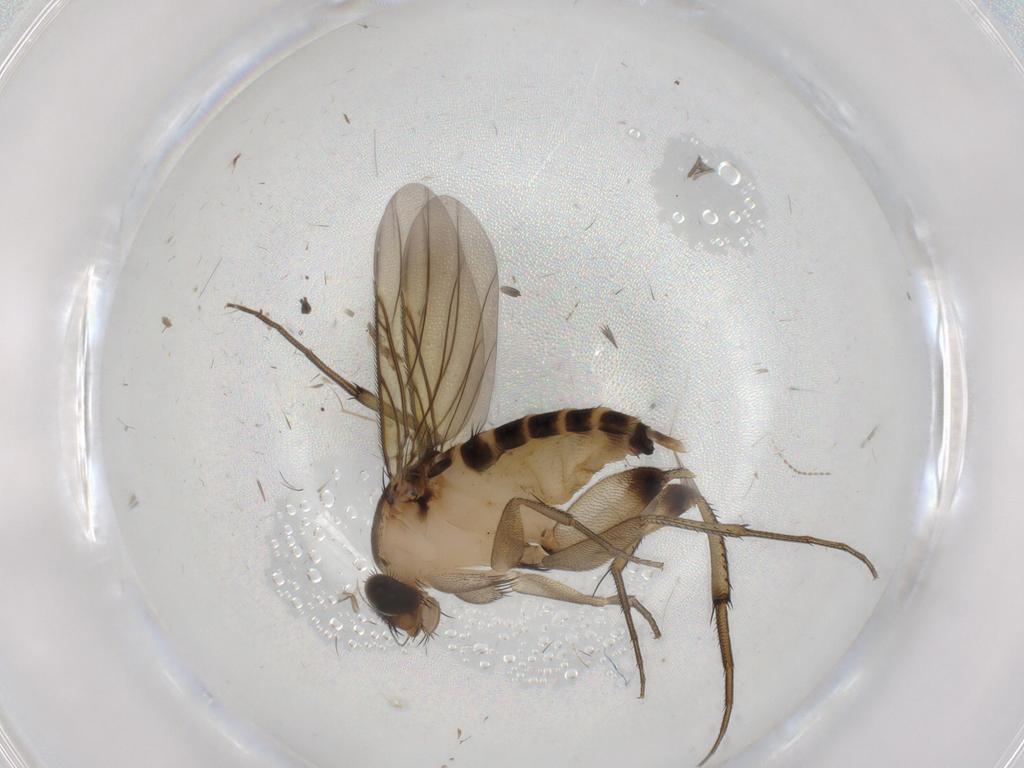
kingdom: Animalia
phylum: Arthropoda
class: Insecta
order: Diptera
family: Phoridae
